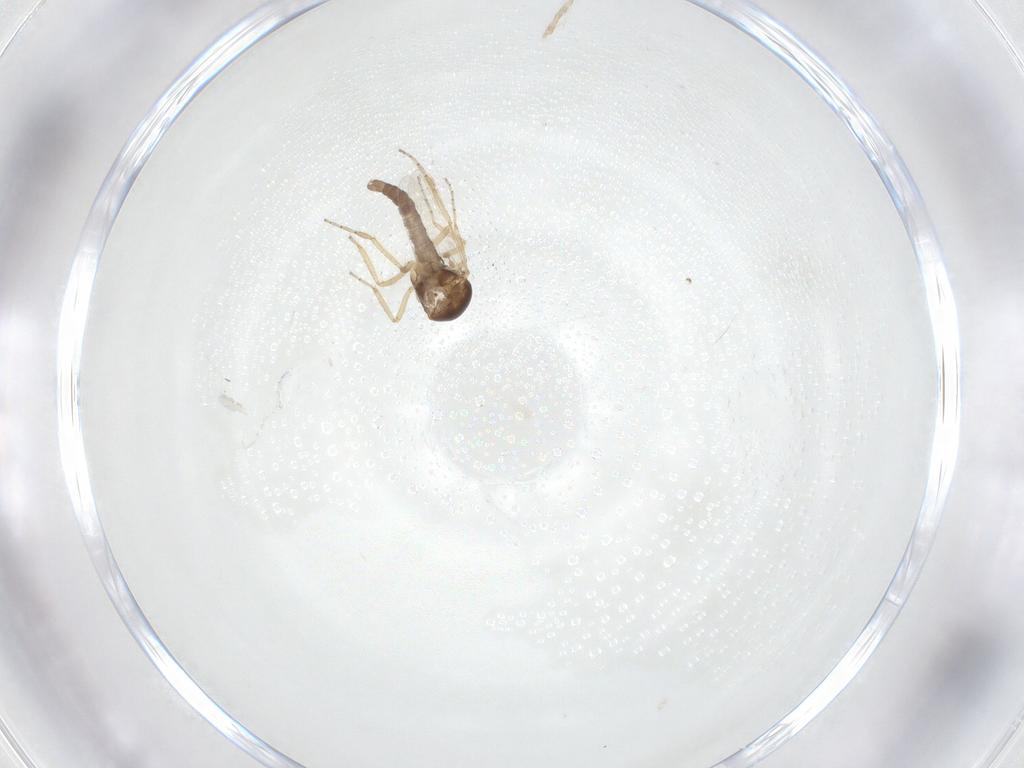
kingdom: Animalia
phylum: Arthropoda
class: Insecta
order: Diptera
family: Ceratopogonidae
